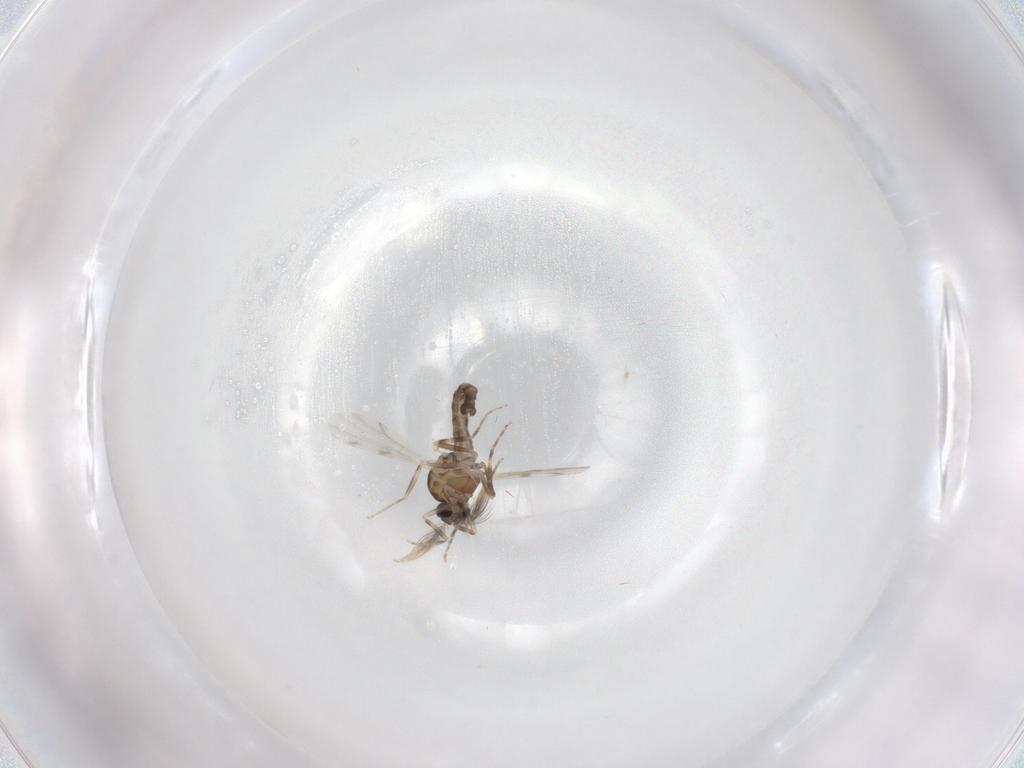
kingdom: Animalia
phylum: Arthropoda
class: Insecta
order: Diptera
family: Ceratopogonidae
